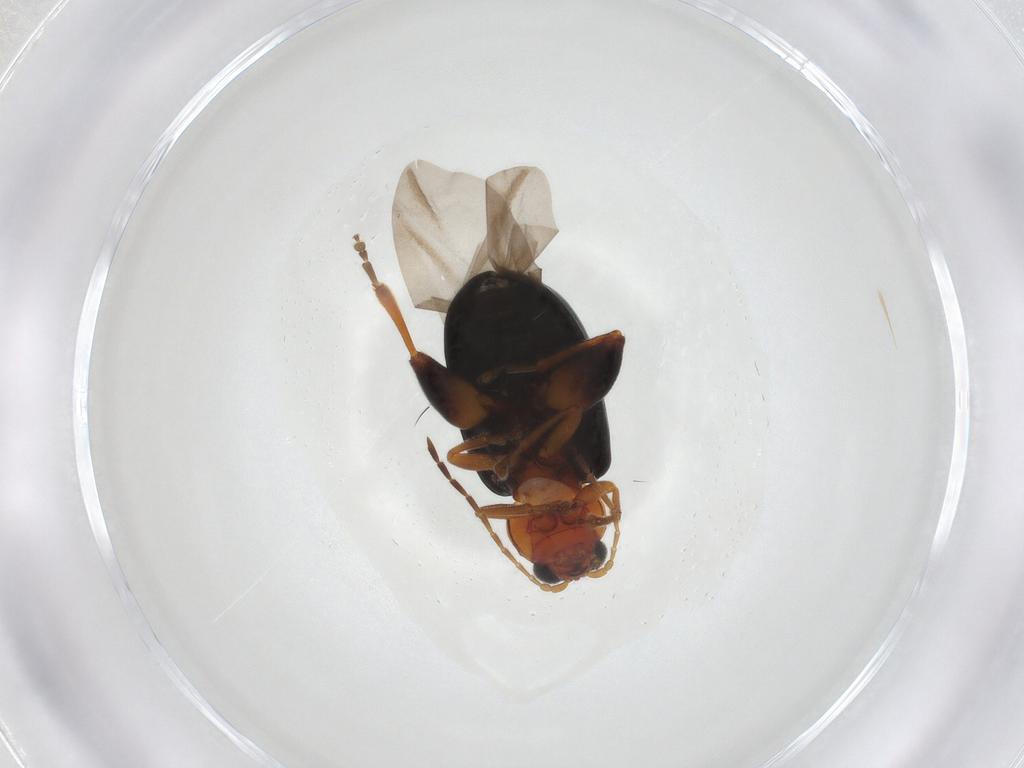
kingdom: Animalia
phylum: Arthropoda
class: Insecta
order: Coleoptera
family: Chrysomelidae
